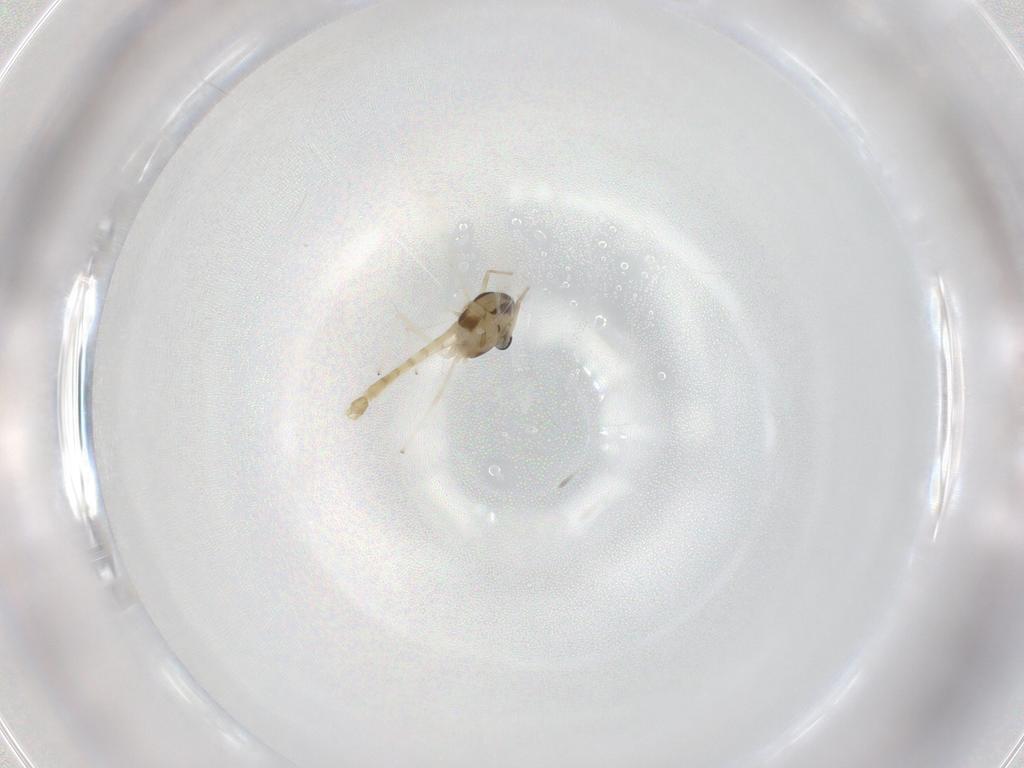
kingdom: Animalia
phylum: Arthropoda
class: Insecta
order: Diptera
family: Chironomidae
